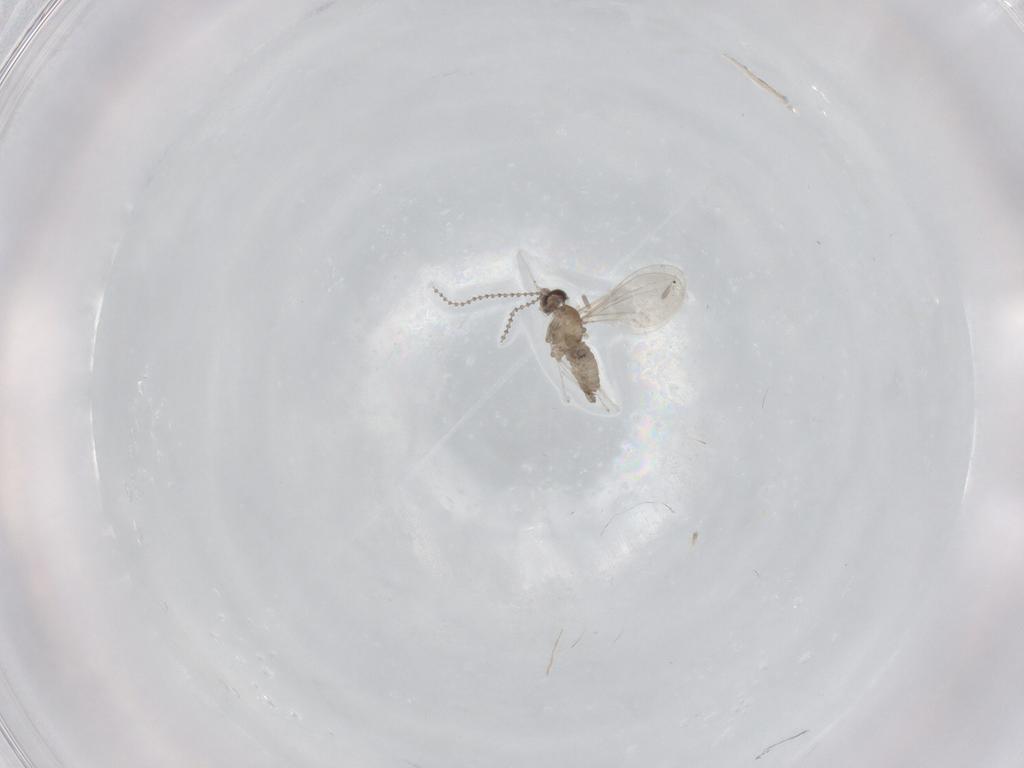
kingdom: Animalia
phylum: Arthropoda
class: Insecta
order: Diptera
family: Cecidomyiidae
